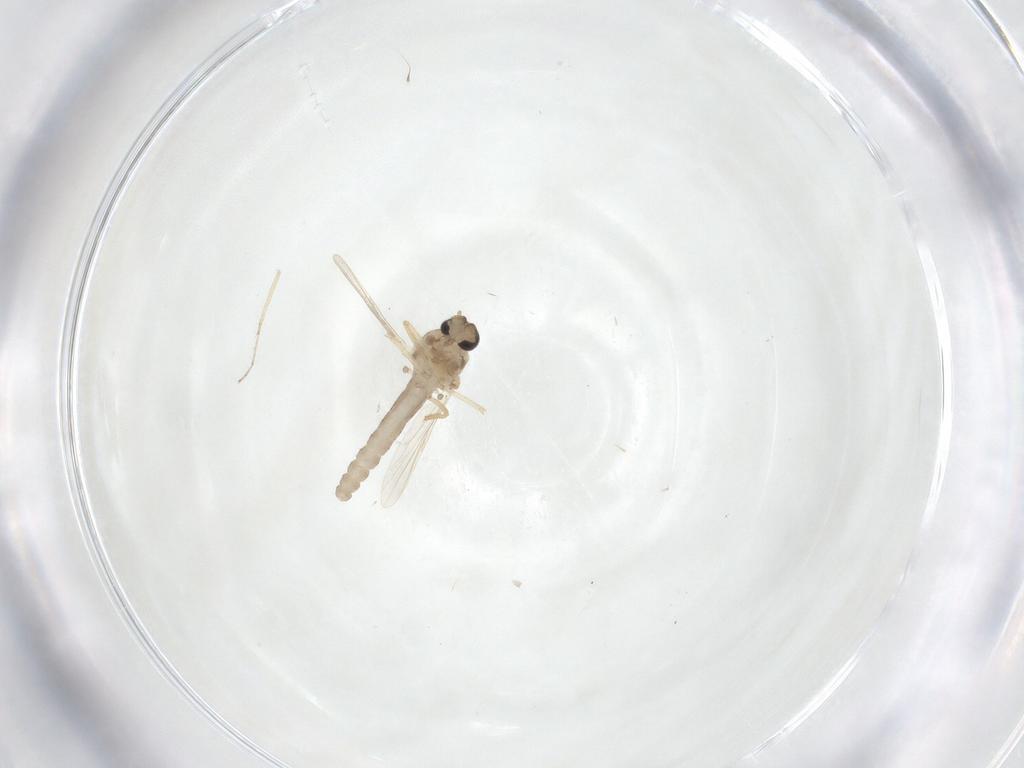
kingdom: Animalia
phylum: Arthropoda
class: Insecta
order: Diptera
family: Ceratopogonidae
